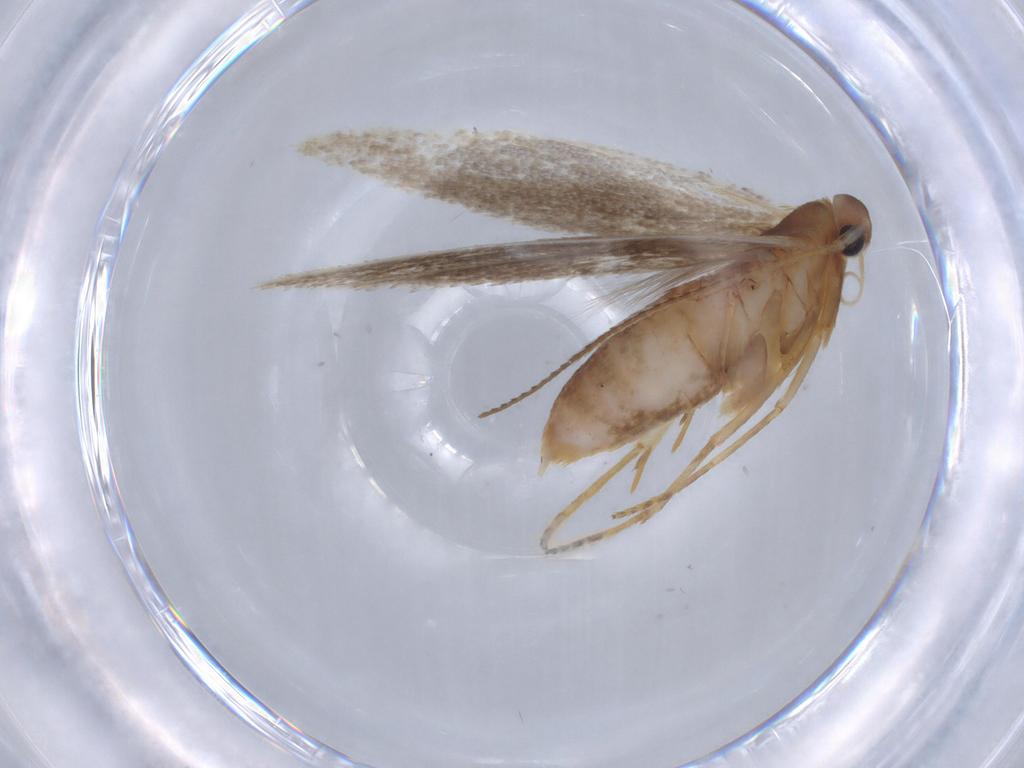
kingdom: Animalia
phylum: Arthropoda
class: Insecta
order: Lepidoptera
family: Coleophoridae
